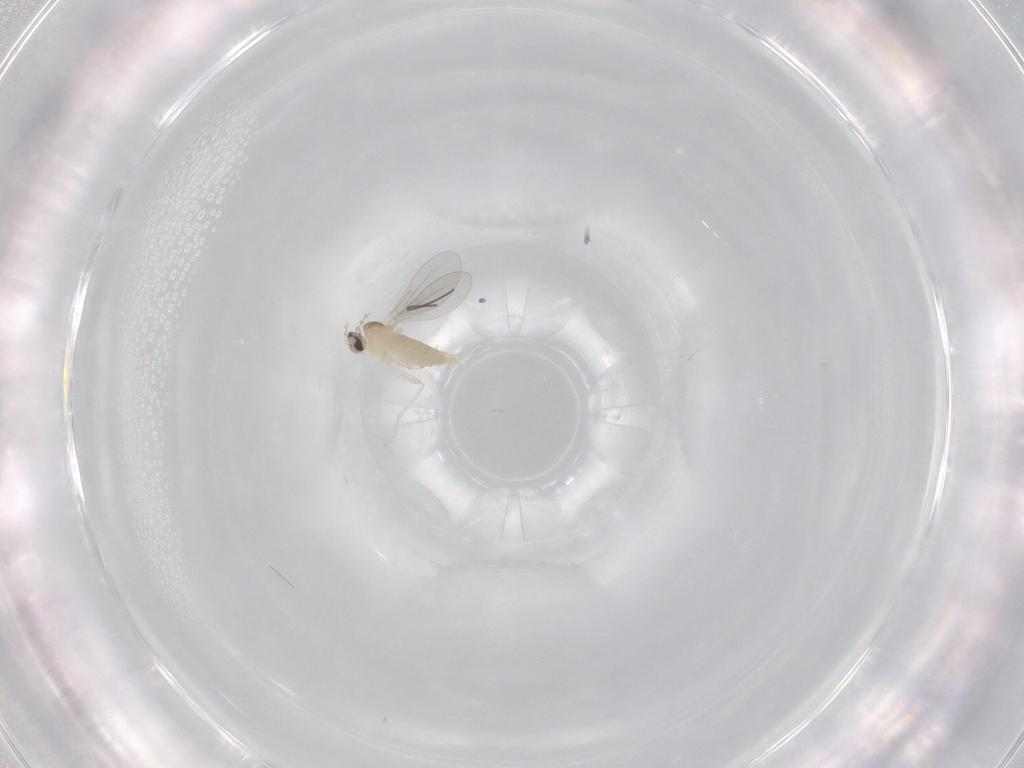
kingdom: Animalia
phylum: Arthropoda
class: Insecta
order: Diptera
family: Cecidomyiidae
